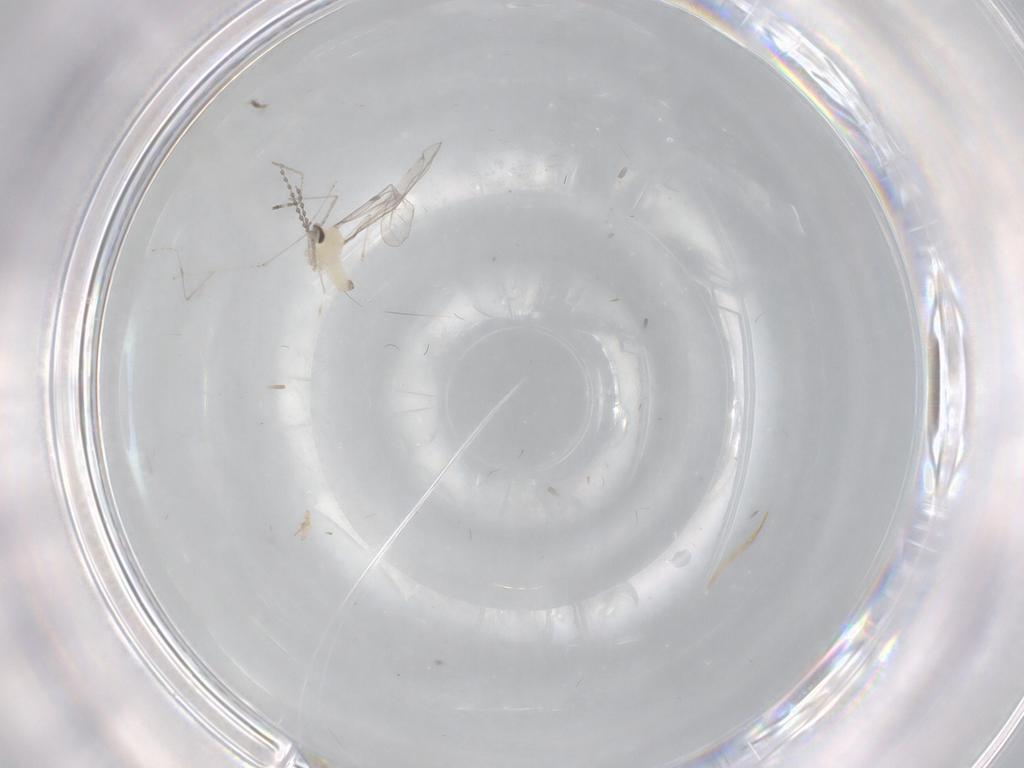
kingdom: Animalia
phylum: Arthropoda
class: Insecta
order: Diptera
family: Cecidomyiidae
